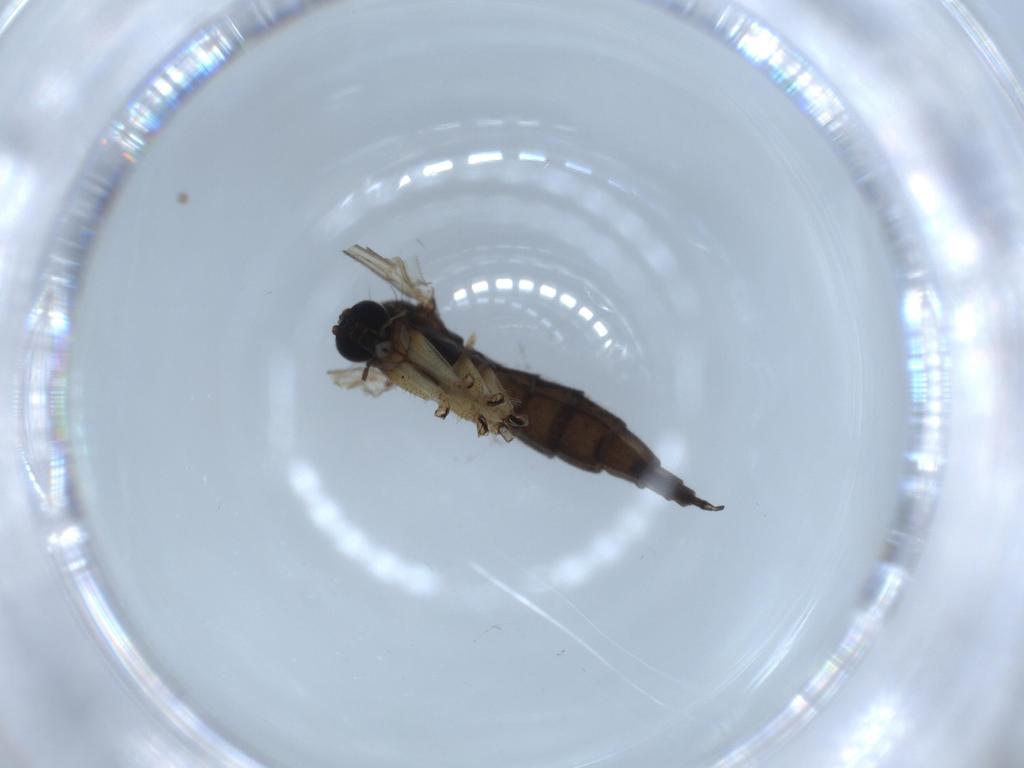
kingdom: Animalia
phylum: Arthropoda
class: Insecta
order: Diptera
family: Sciaridae
